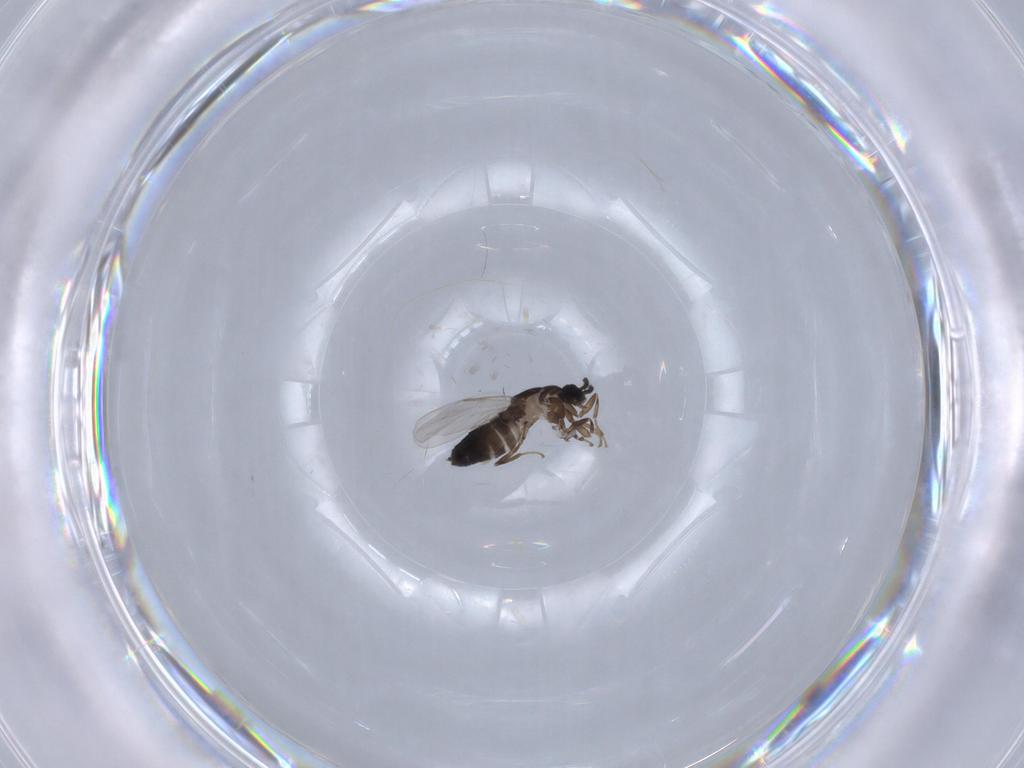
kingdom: Animalia
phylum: Arthropoda
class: Insecta
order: Diptera
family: Scatopsidae
